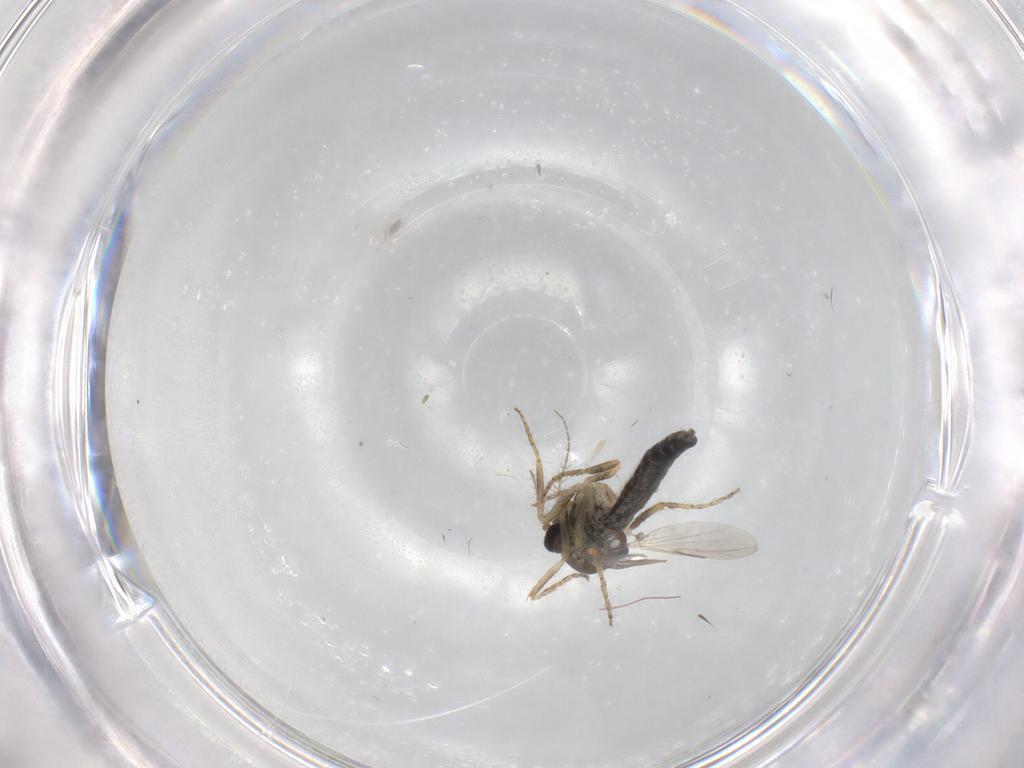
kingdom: Animalia
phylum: Arthropoda
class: Insecta
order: Diptera
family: Ceratopogonidae
